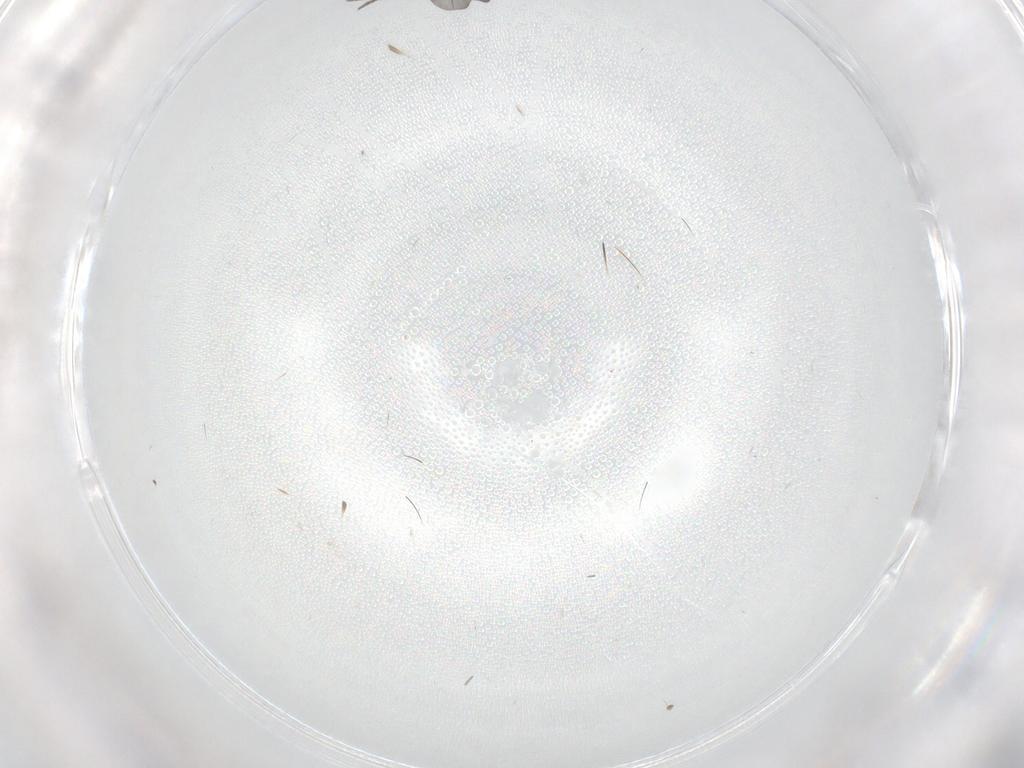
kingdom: Animalia
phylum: Arthropoda
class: Insecta
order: Diptera
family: Phoridae
